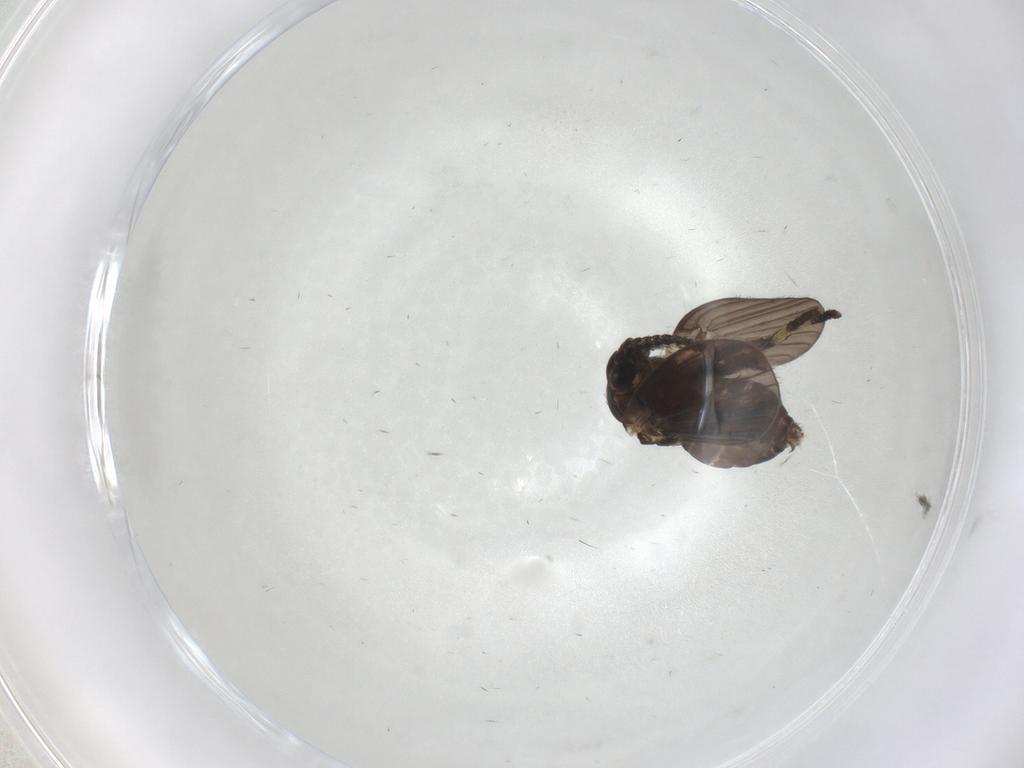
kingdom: Animalia
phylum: Arthropoda
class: Insecta
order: Diptera
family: Psychodidae
